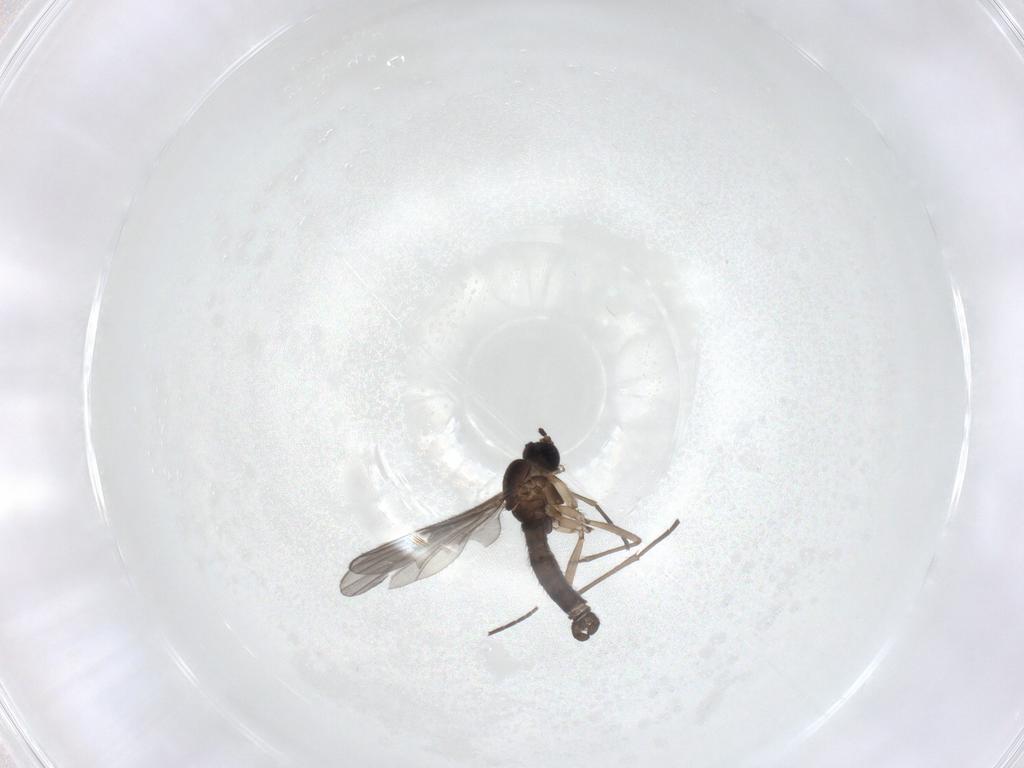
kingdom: Animalia
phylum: Arthropoda
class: Insecta
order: Diptera
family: Sciaridae
